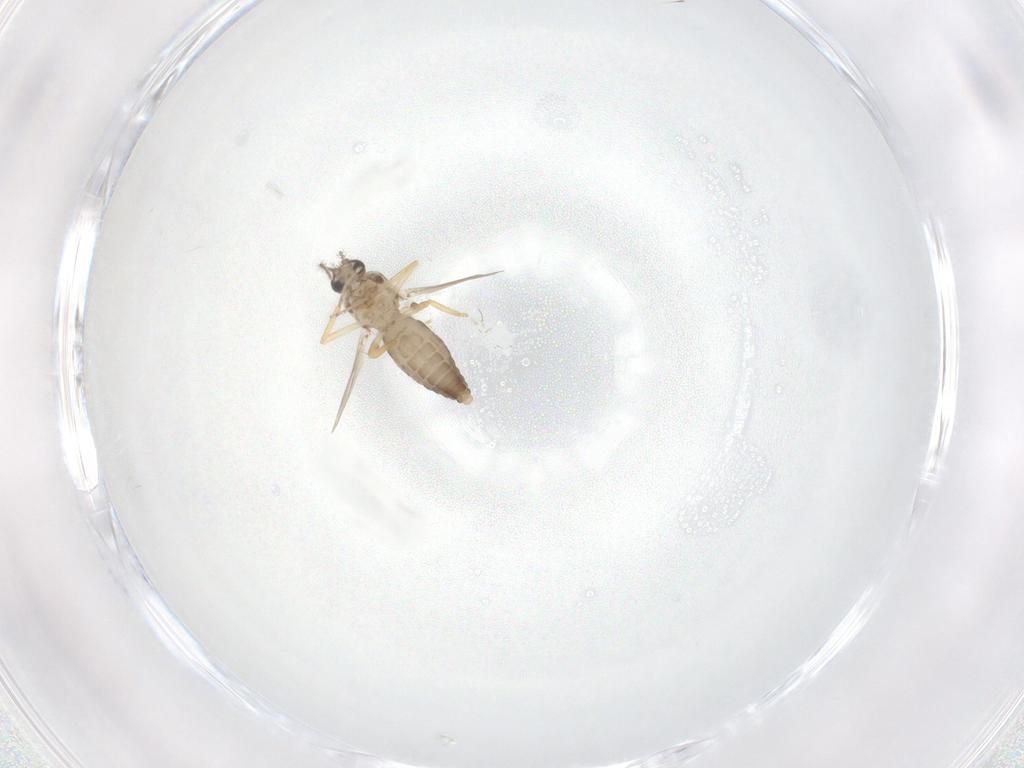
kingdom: Animalia
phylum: Arthropoda
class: Insecta
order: Diptera
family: Ceratopogonidae
